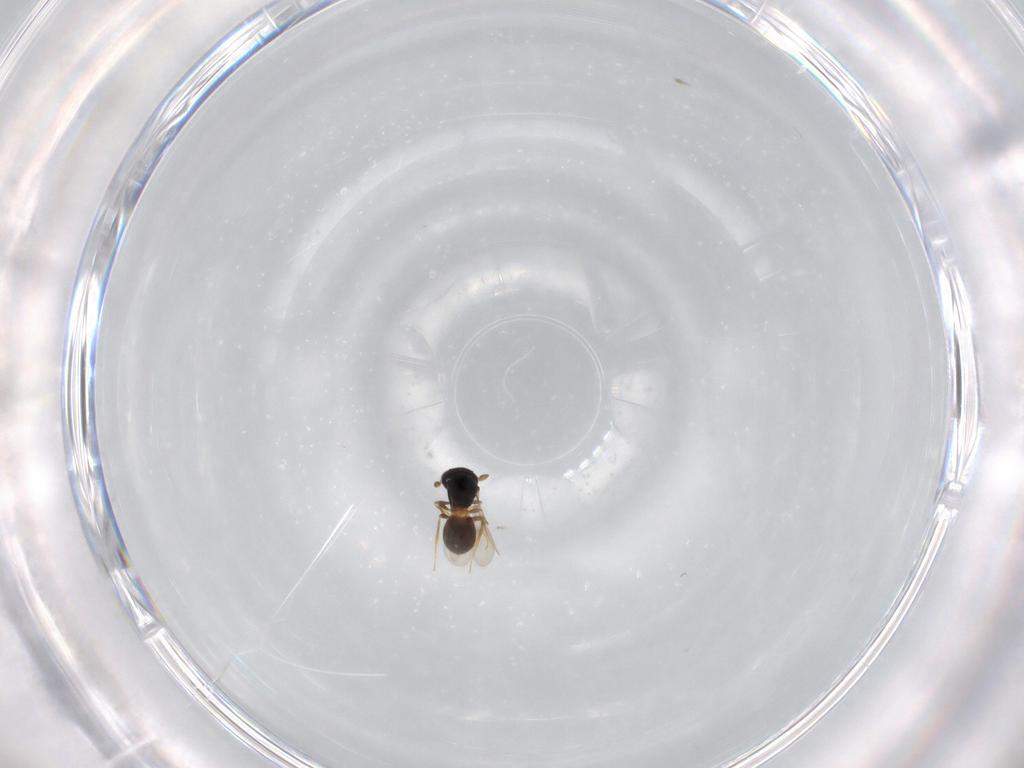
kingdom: Animalia
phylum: Arthropoda
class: Insecta
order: Hymenoptera
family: Scelionidae
